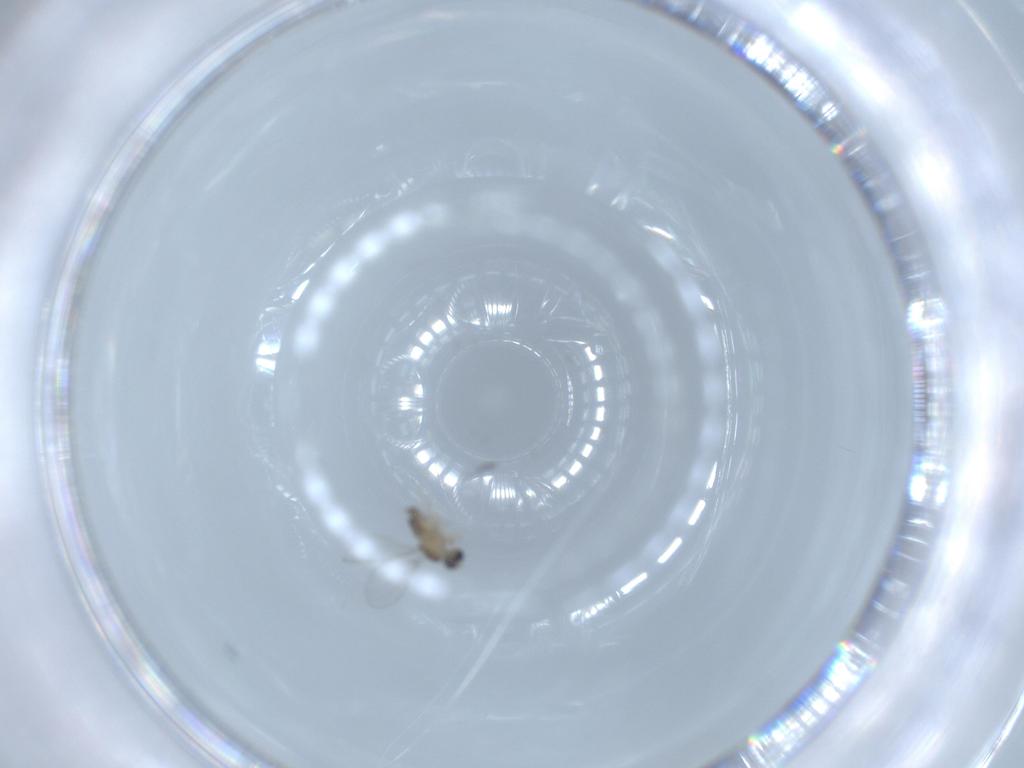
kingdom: Animalia
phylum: Arthropoda
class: Insecta
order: Diptera
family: Cecidomyiidae
